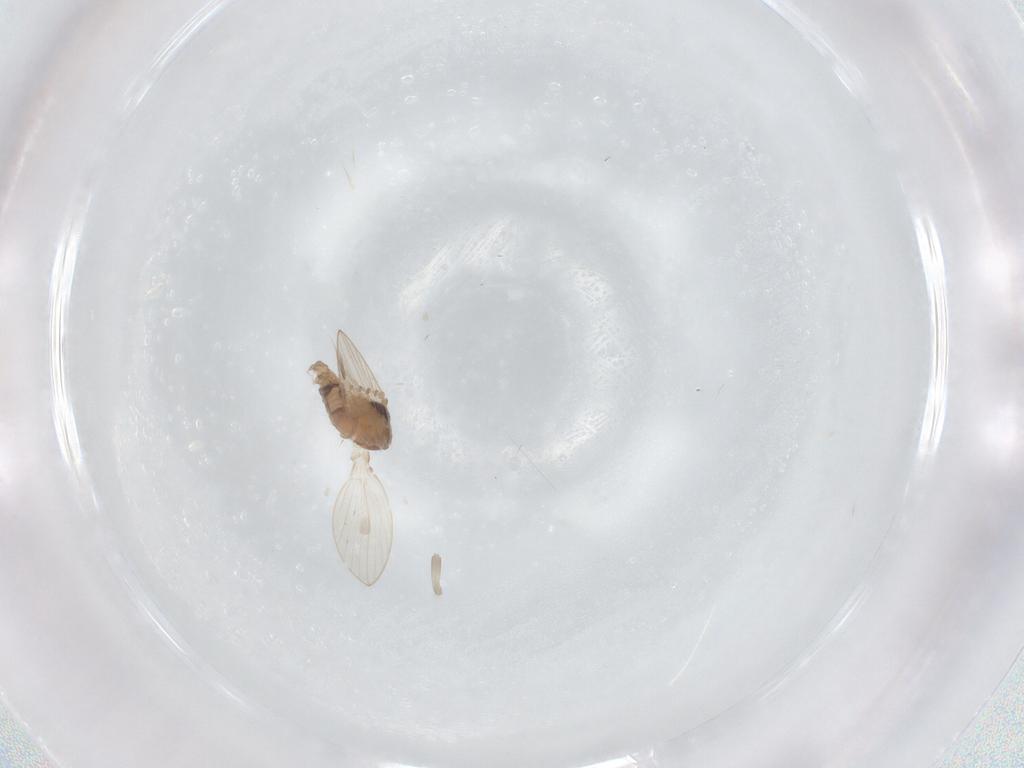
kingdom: Animalia
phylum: Arthropoda
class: Insecta
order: Diptera
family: Psychodidae
